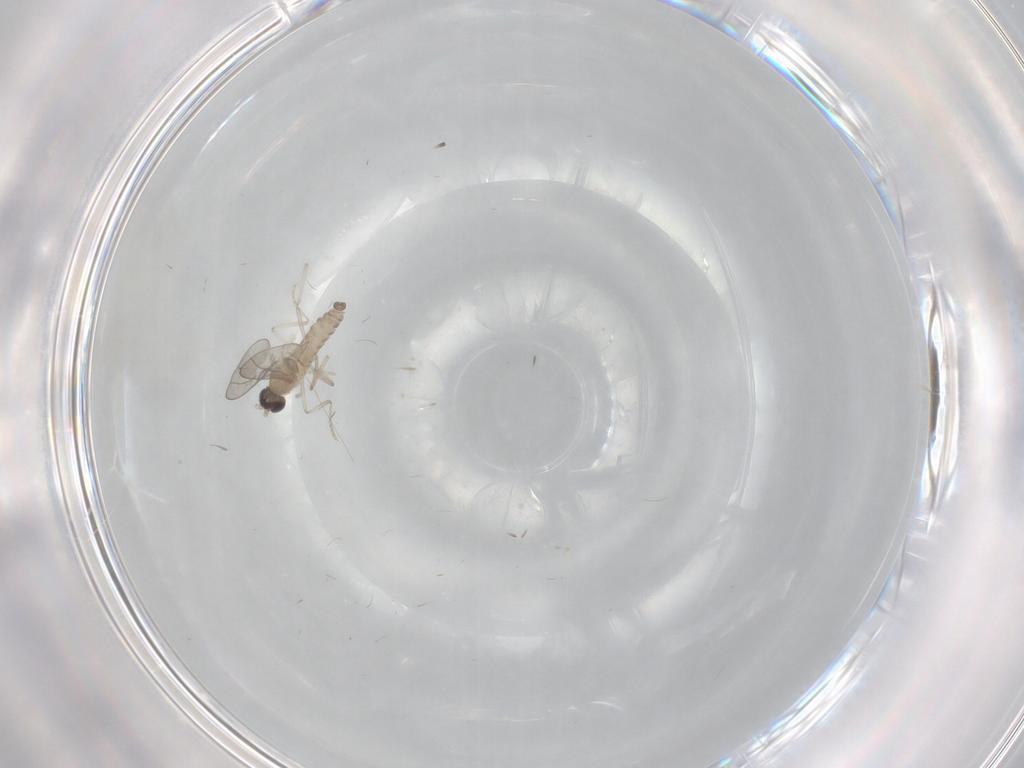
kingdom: Animalia
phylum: Arthropoda
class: Insecta
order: Diptera
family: Cecidomyiidae
